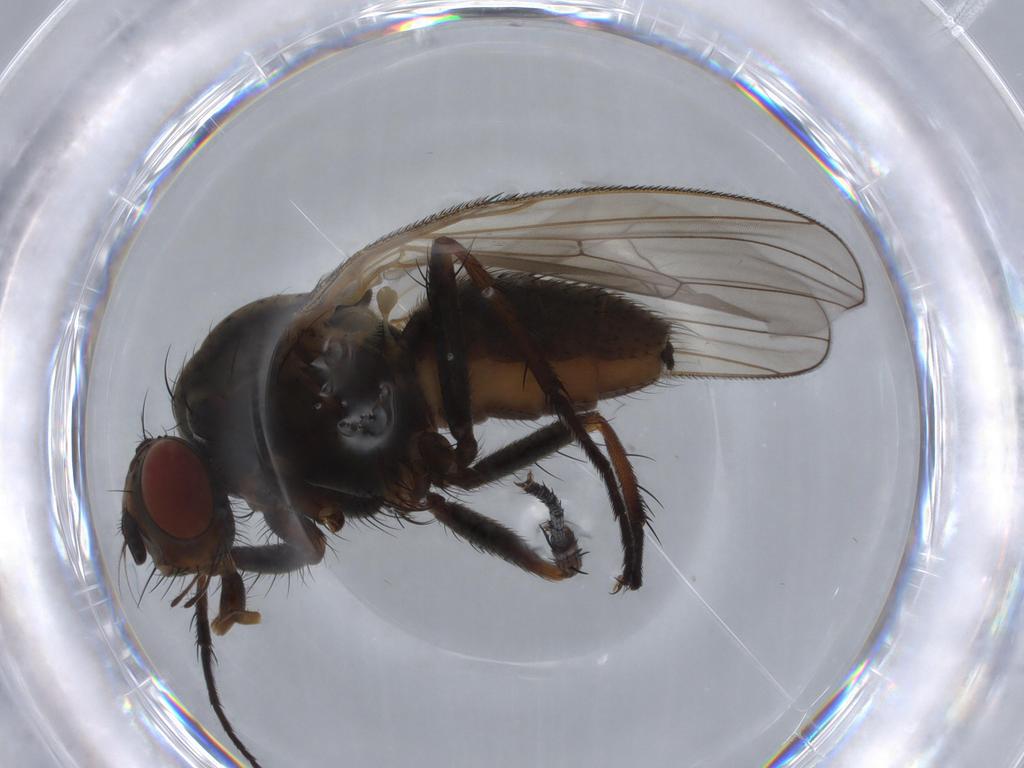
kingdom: Animalia
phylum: Arthropoda
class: Insecta
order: Diptera
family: Anthomyiidae
